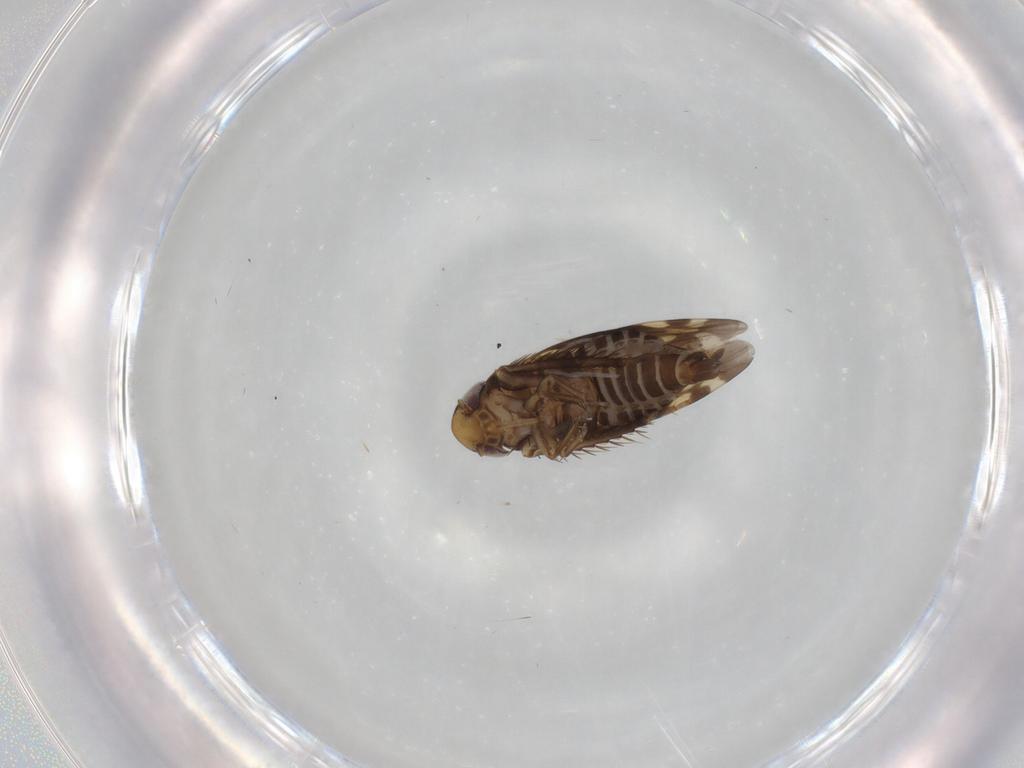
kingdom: Animalia
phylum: Arthropoda
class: Insecta
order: Hemiptera
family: Cicadellidae
